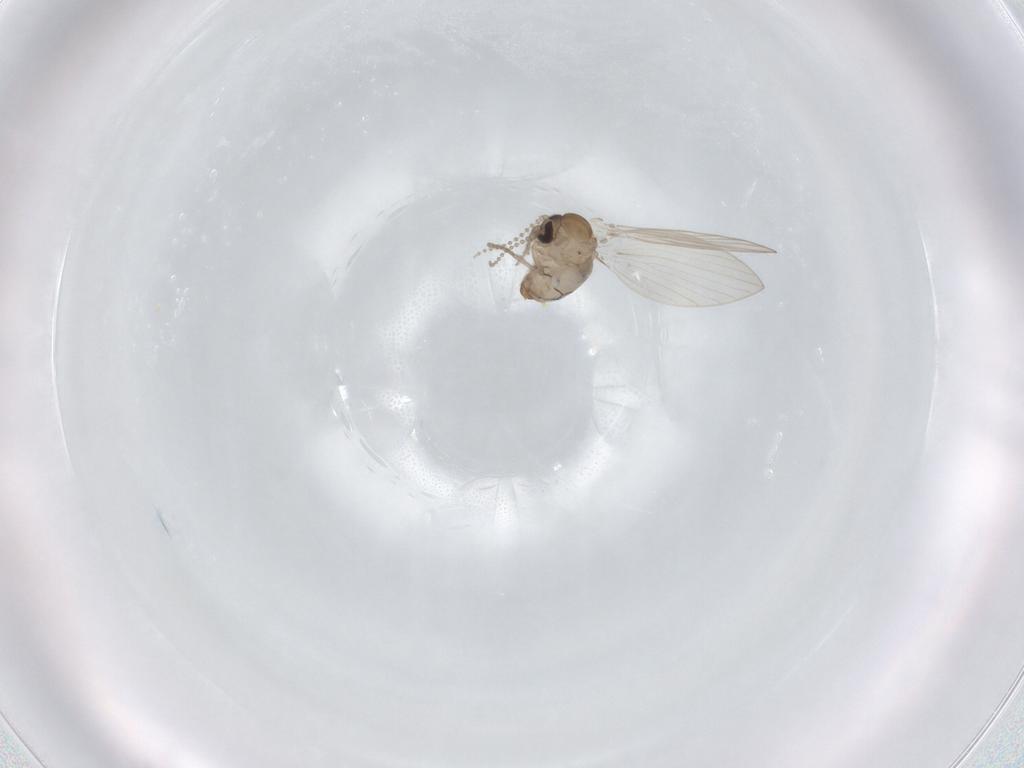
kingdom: Animalia
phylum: Arthropoda
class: Insecta
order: Diptera
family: Psychodidae
